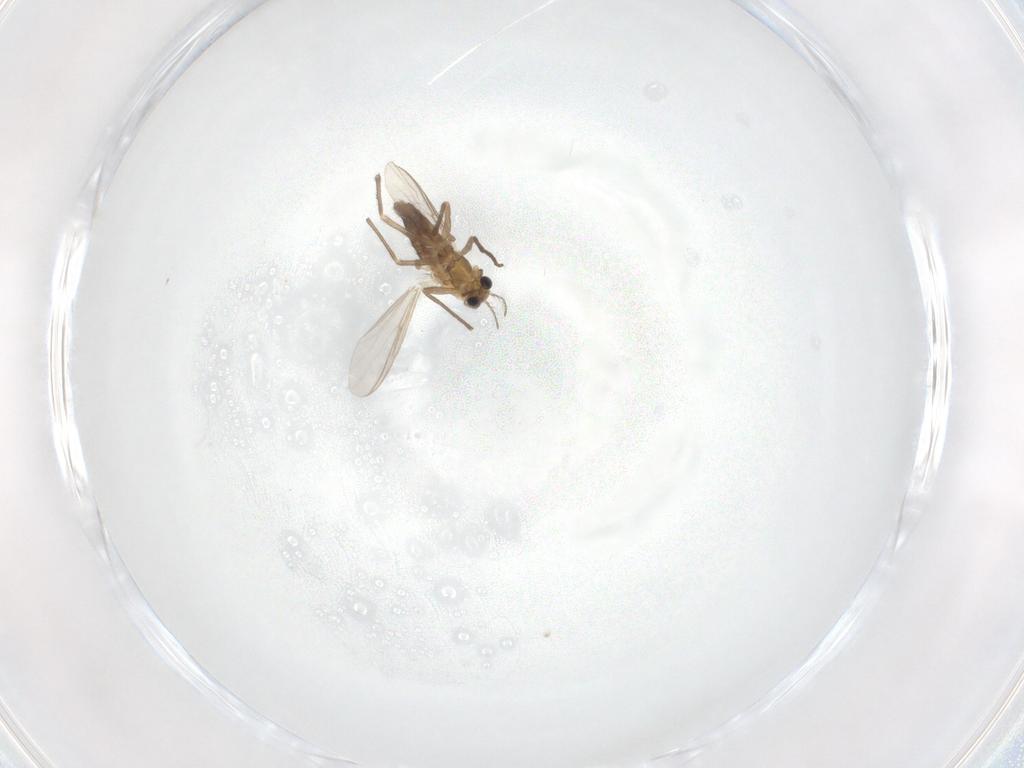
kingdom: Animalia
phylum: Arthropoda
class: Insecta
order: Diptera
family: Chironomidae
